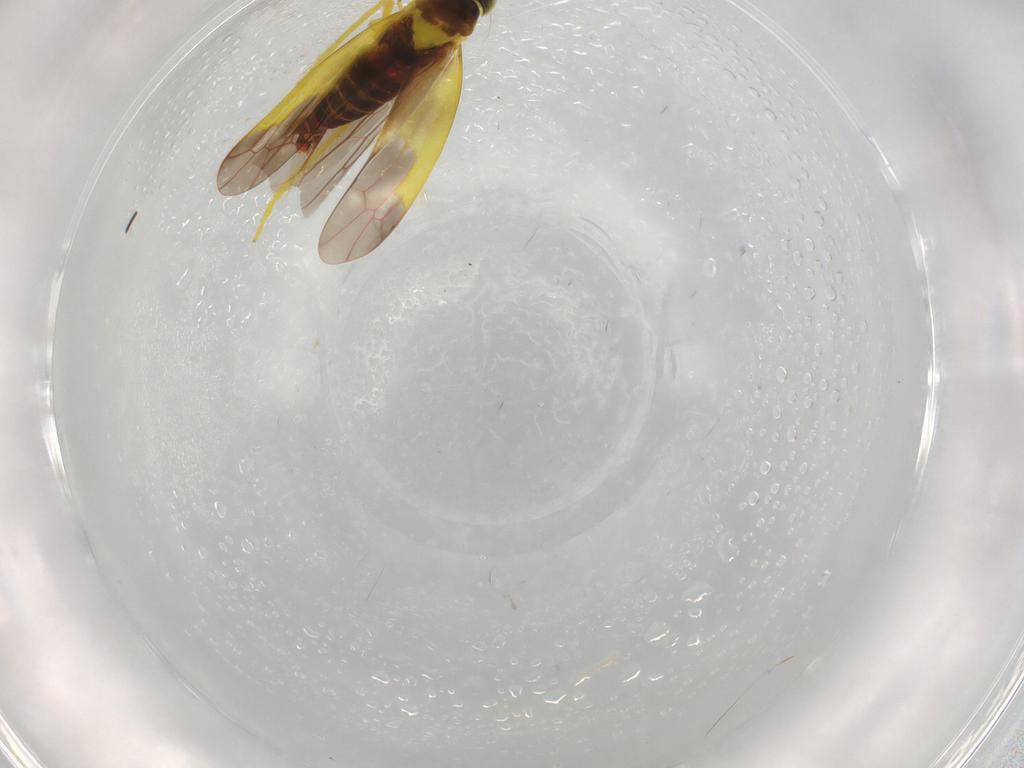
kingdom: Animalia
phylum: Arthropoda
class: Insecta
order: Hemiptera
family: Cicadellidae
